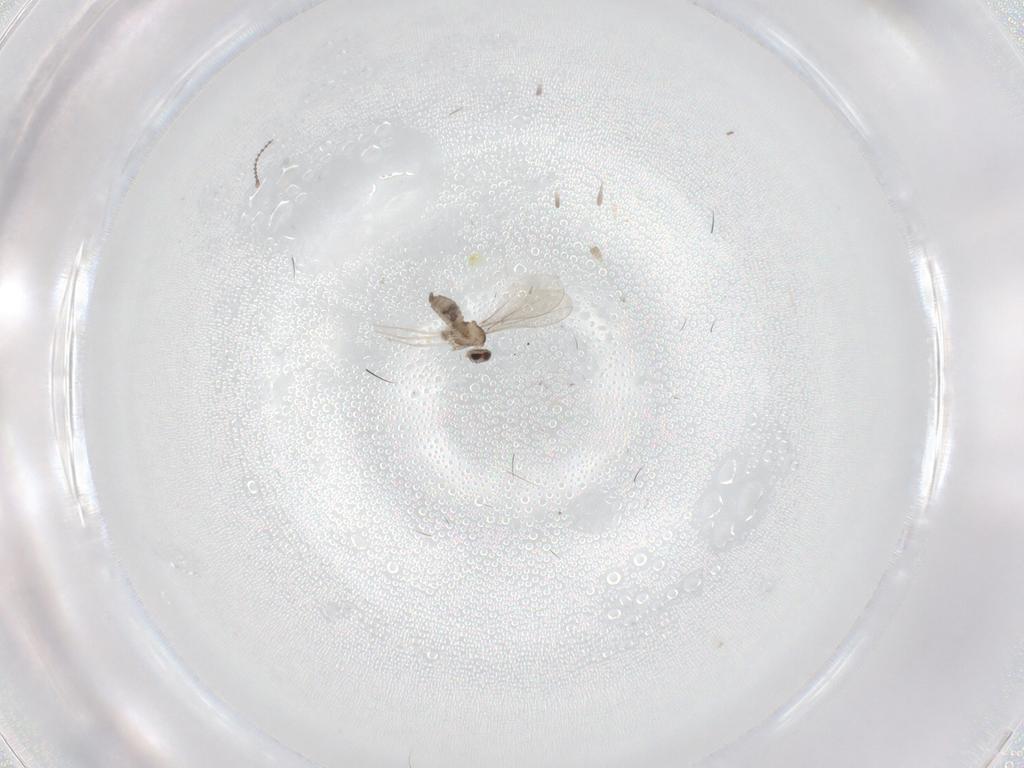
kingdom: Animalia
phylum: Arthropoda
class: Insecta
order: Diptera
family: Cecidomyiidae
